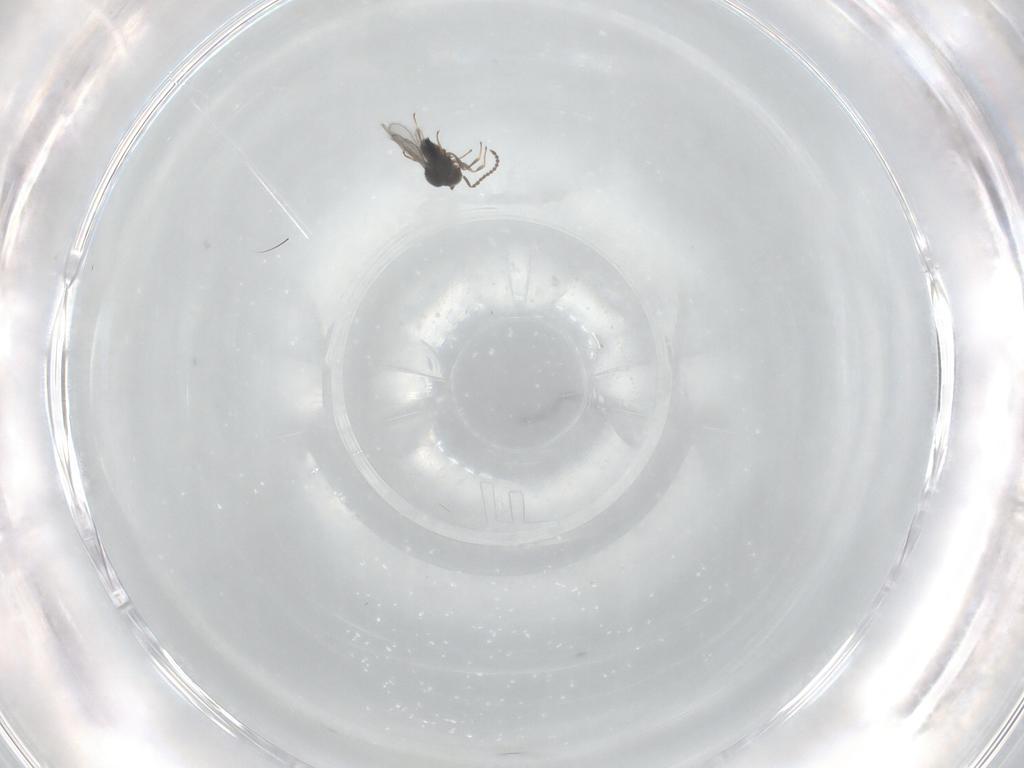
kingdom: Animalia
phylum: Arthropoda
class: Insecta
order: Hymenoptera
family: Scelionidae
